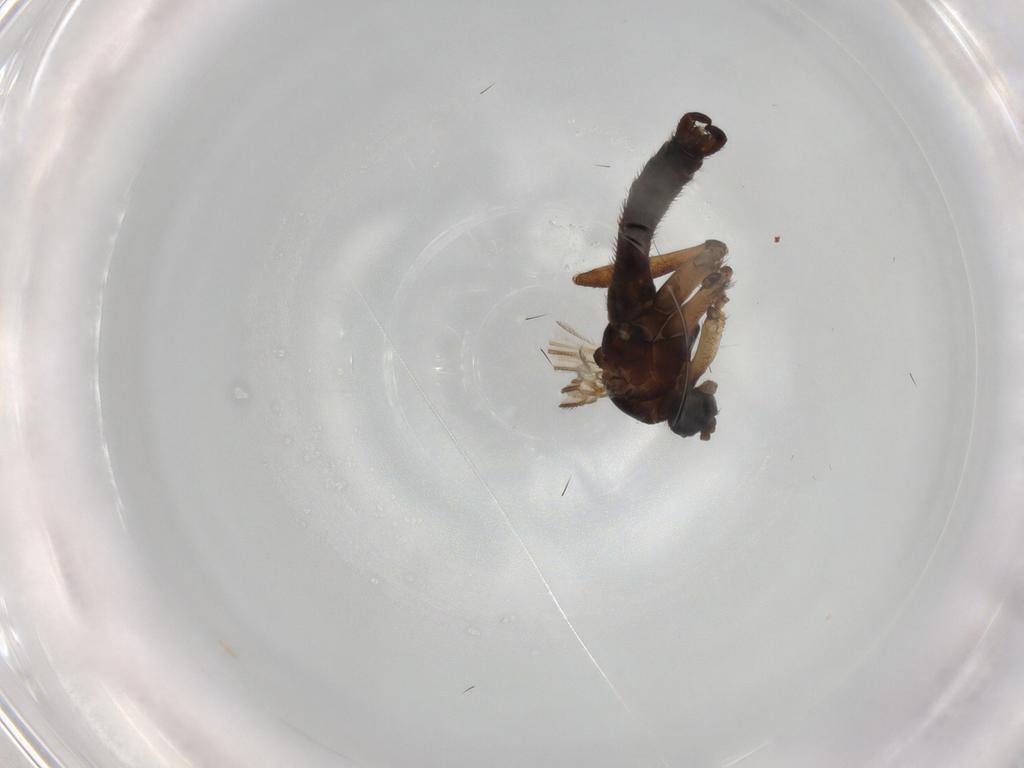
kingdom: Animalia
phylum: Arthropoda
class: Insecta
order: Diptera
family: Sciaridae
